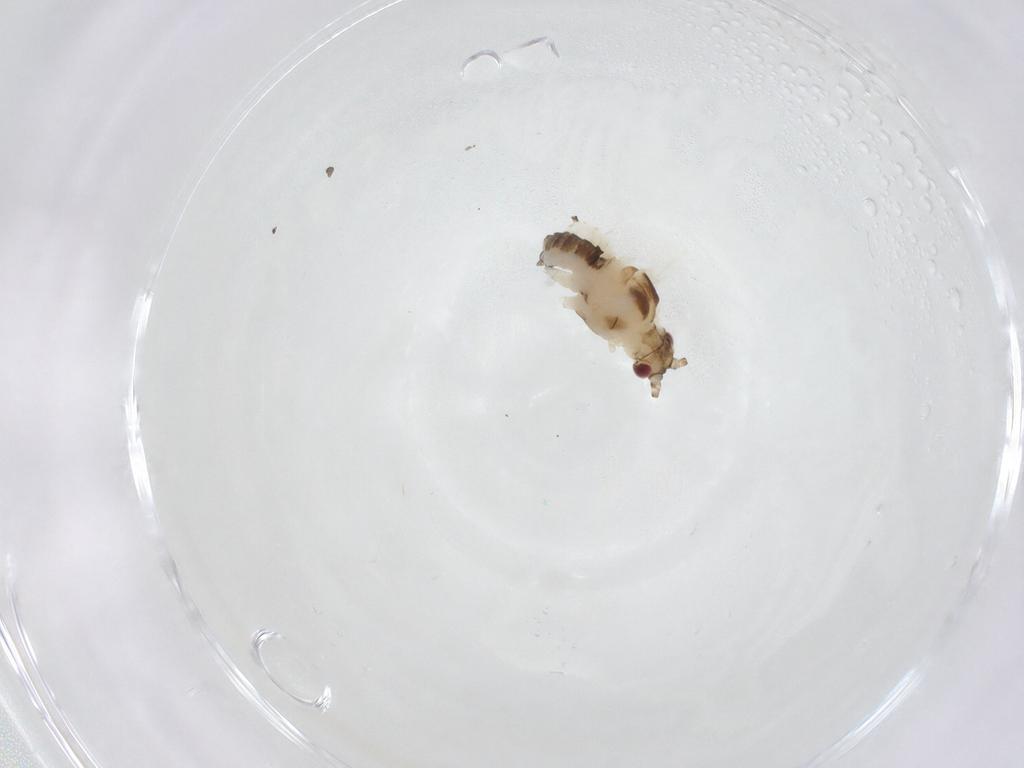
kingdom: Animalia
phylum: Arthropoda
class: Insecta
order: Hemiptera
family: Aphididae
